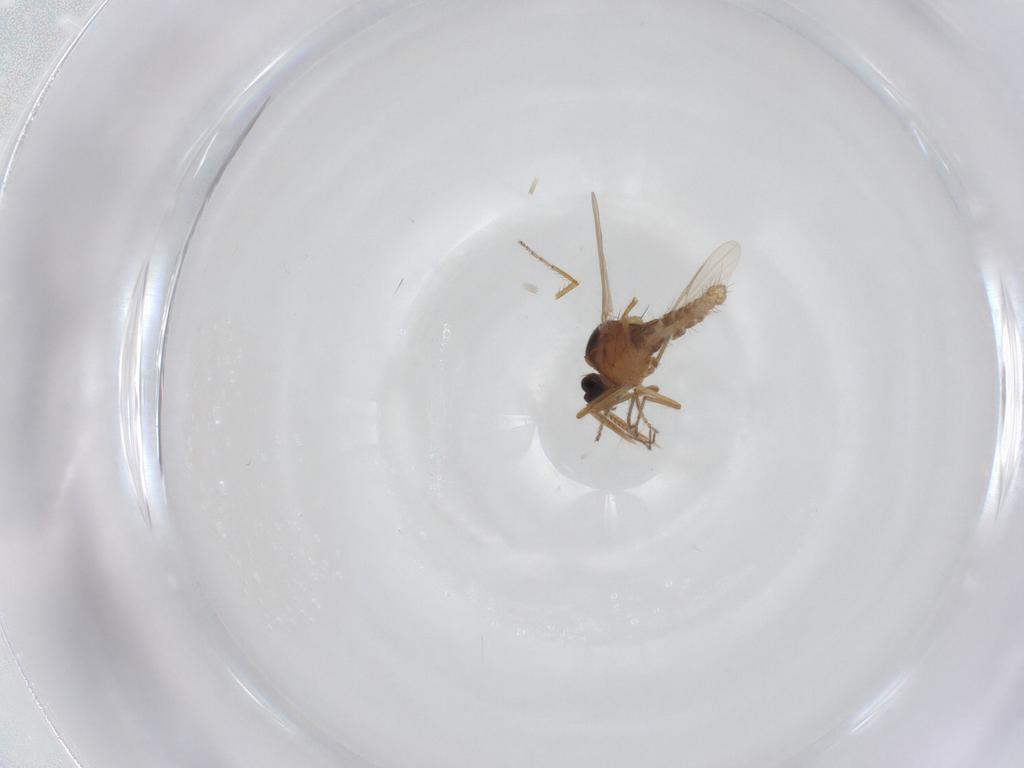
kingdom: Animalia
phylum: Arthropoda
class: Insecta
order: Diptera
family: Ceratopogonidae
